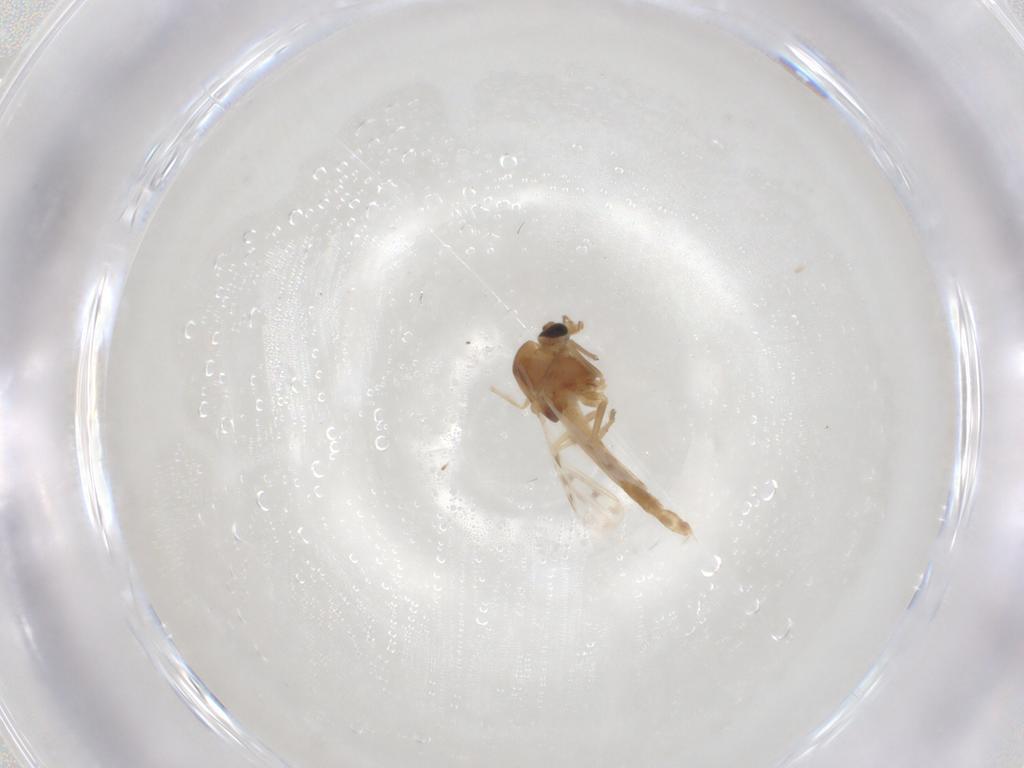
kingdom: Animalia
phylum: Arthropoda
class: Insecta
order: Diptera
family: Chironomidae
